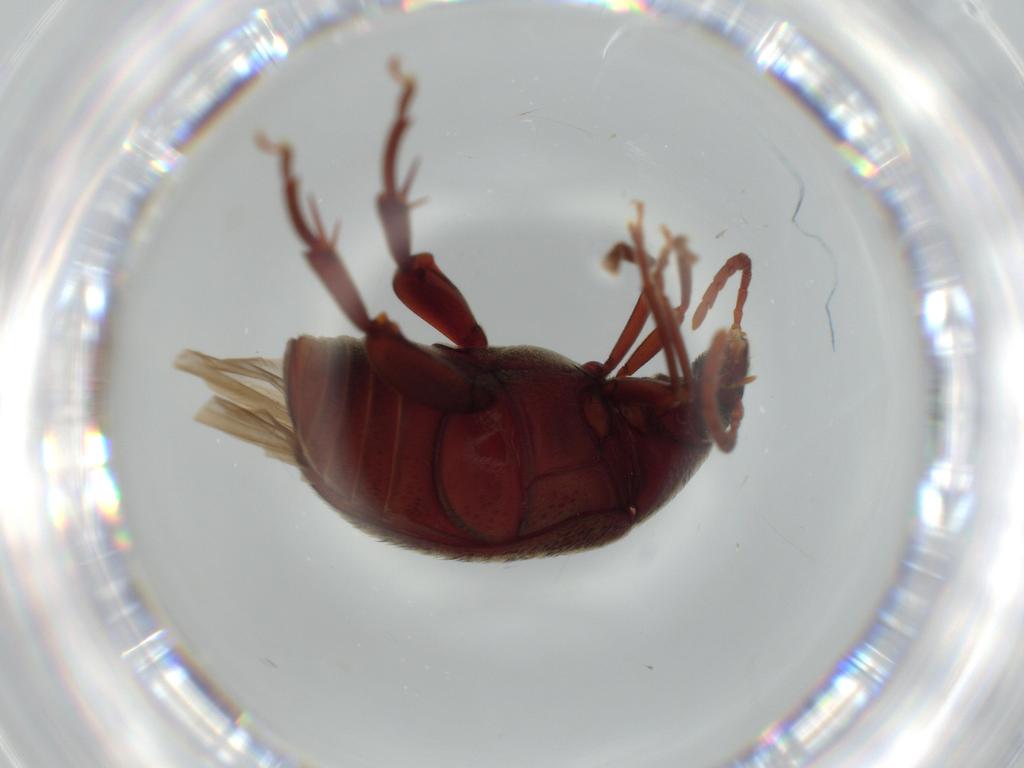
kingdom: Animalia
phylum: Arthropoda
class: Insecta
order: Coleoptera
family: Chrysomelidae
